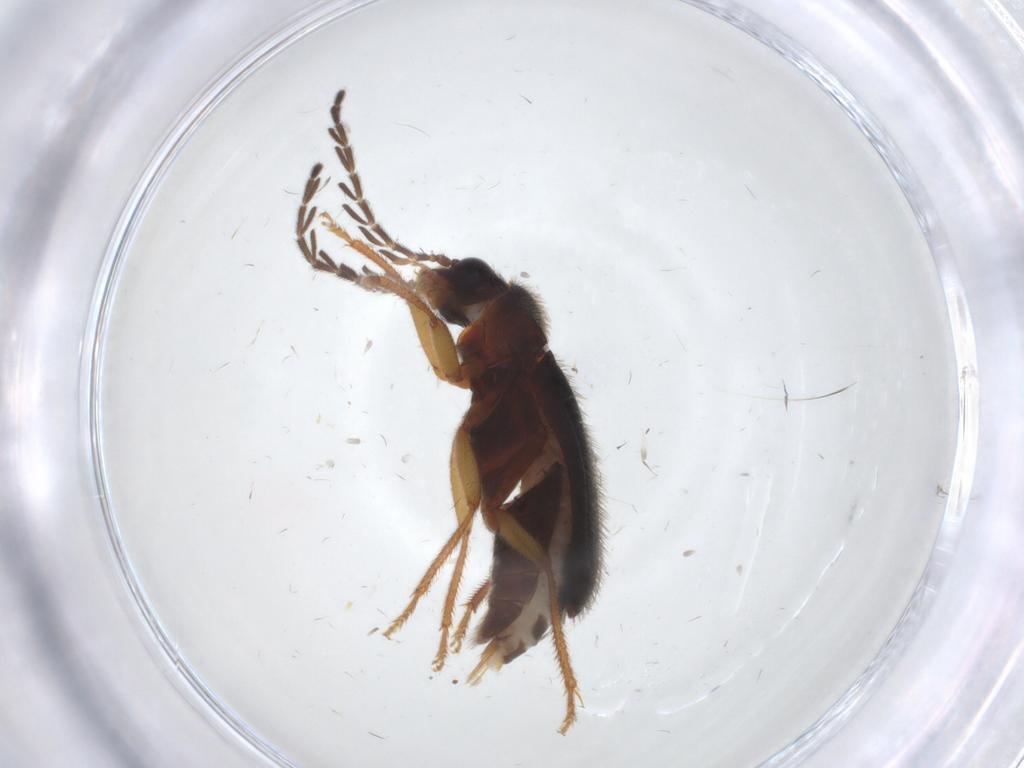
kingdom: Animalia
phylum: Arthropoda
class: Insecta
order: Coleoptera
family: Ptilodactylidae
